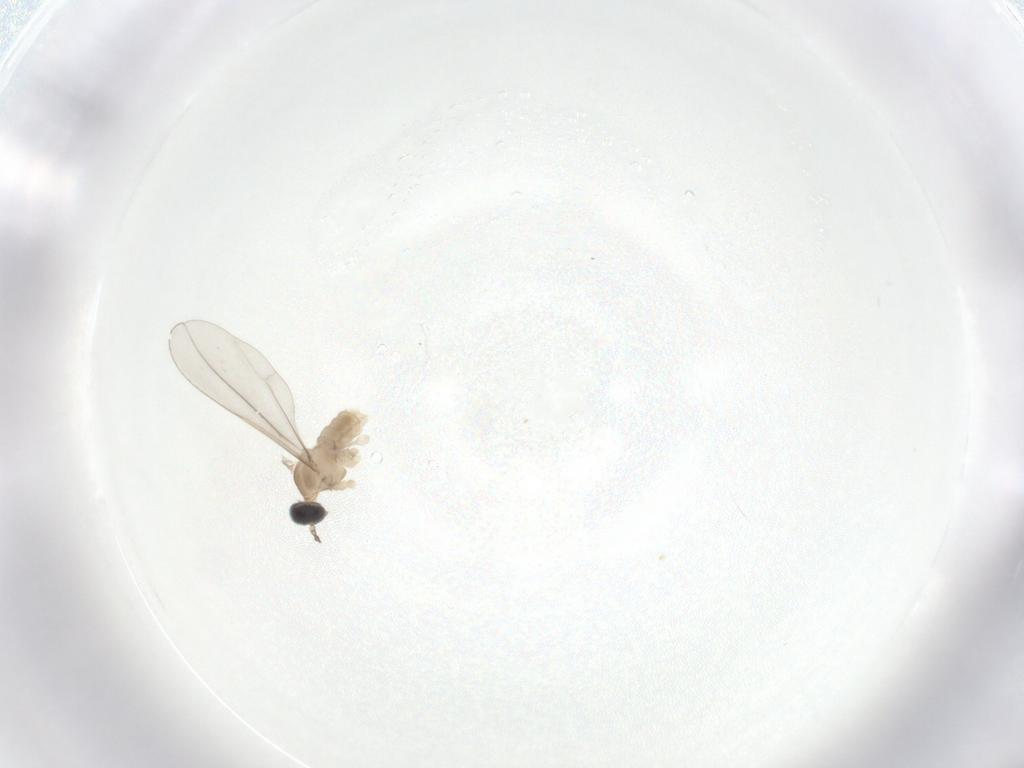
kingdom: Animalia
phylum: Arthropoda
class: Insecta
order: Diptera
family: Cecidomyiidae
